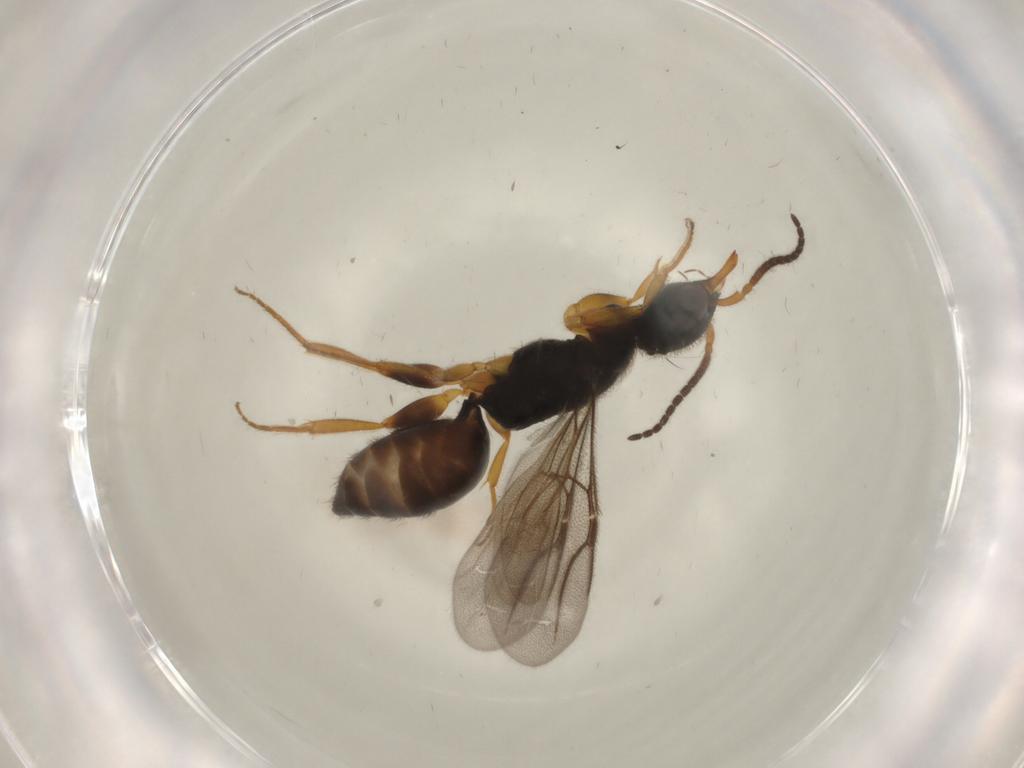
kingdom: Animalia
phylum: Arthropoda
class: Insecta
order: Hymenoptera
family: Bethylidae
